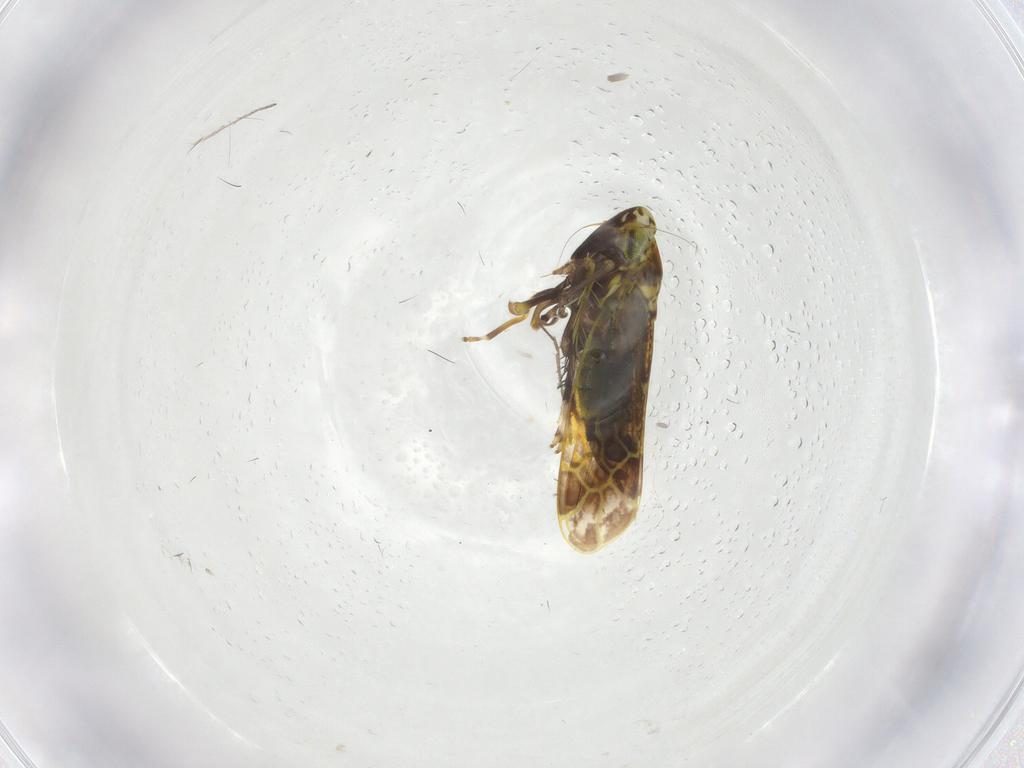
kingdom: Animalia
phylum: Arthropoda
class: Insecta
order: Hemiptera
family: Cicadellidae
